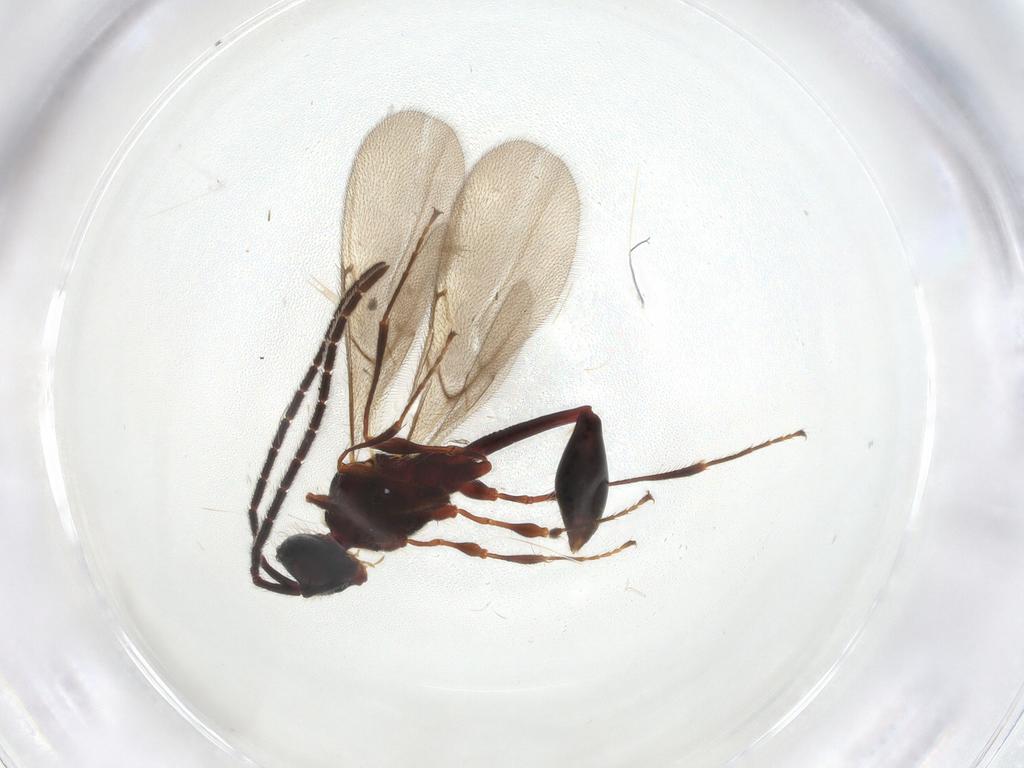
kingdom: Animalia
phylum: Arthropoda
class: Insecta
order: Hymenoptera
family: Diapriidae
